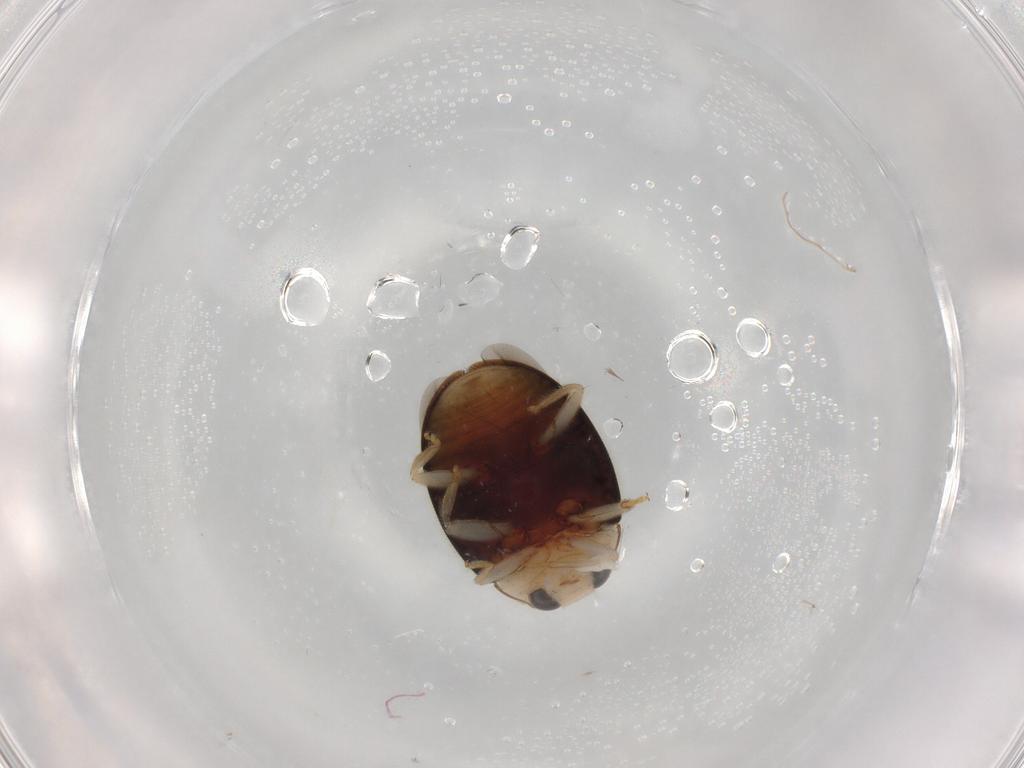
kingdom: Animalia
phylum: Arthropoda
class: Insecta
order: Coleoptera
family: Coccinellidae
